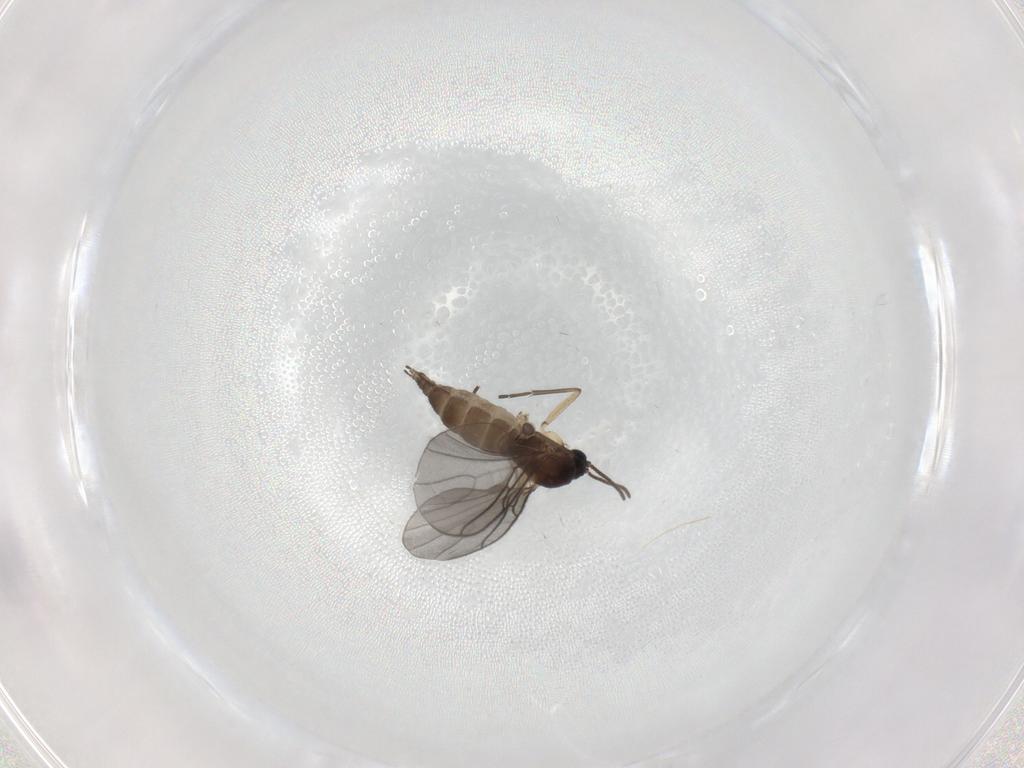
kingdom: Animalia
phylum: Arthropoda
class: Insecta
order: Diptera
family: Sciaridae
